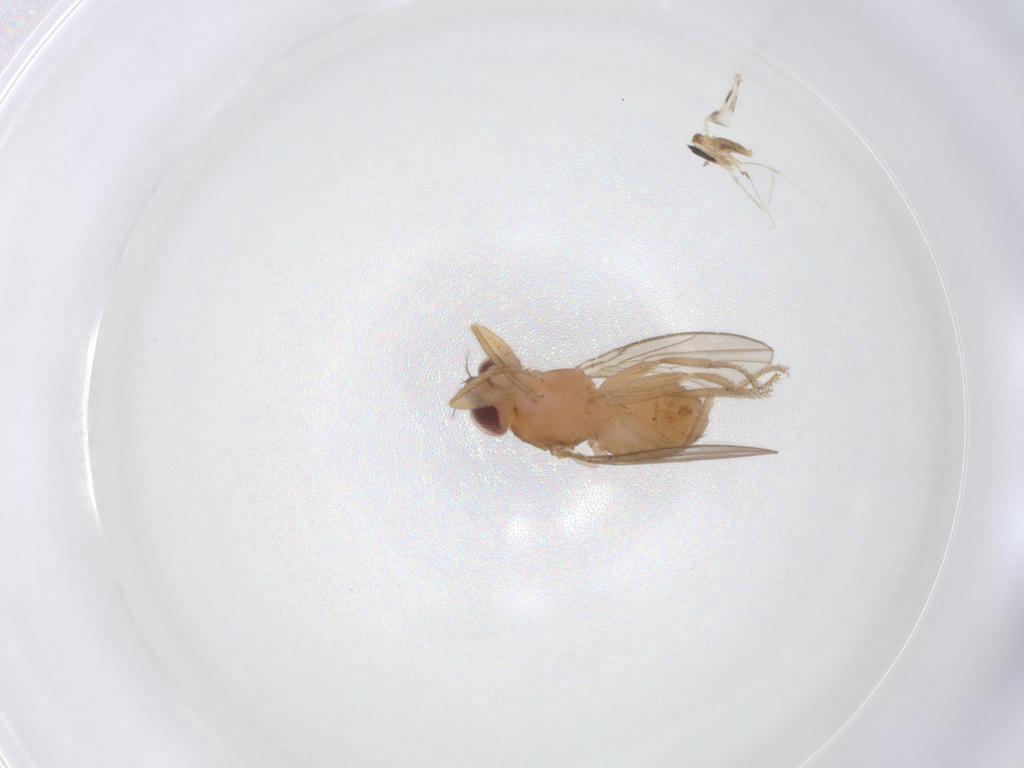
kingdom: Animalia
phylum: Arthropoda
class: Insecta
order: Diptera
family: Drosophilidae
